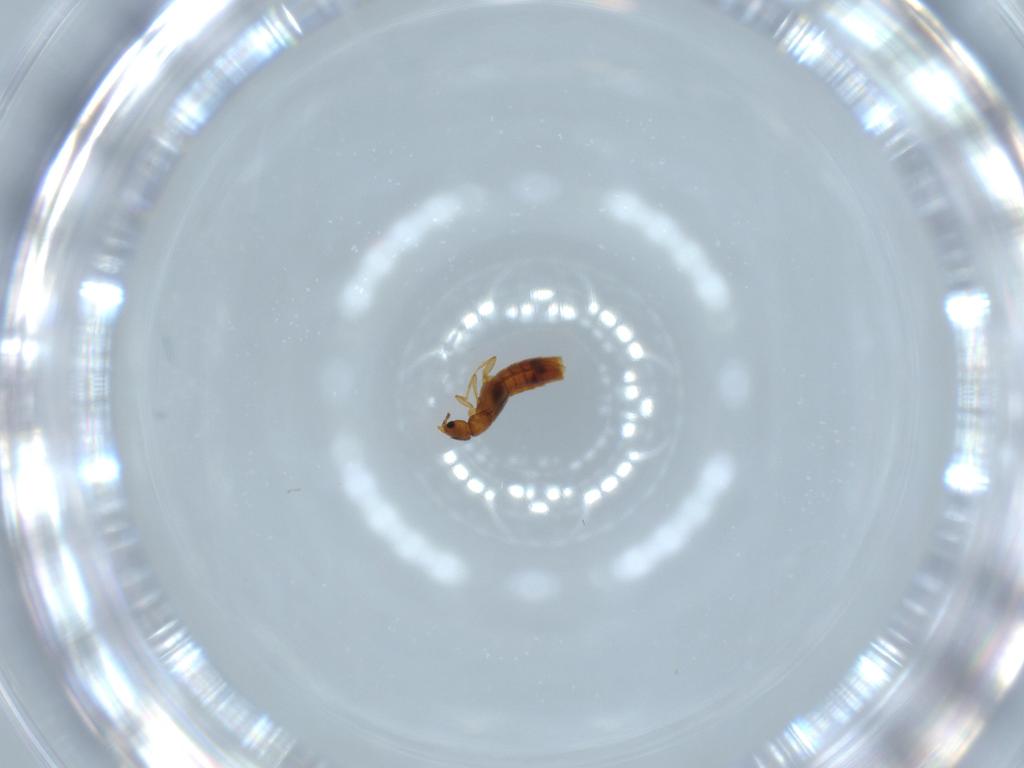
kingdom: Animalia
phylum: Arthropoda
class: Insecta
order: Coleoptera
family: Staphylinidae
